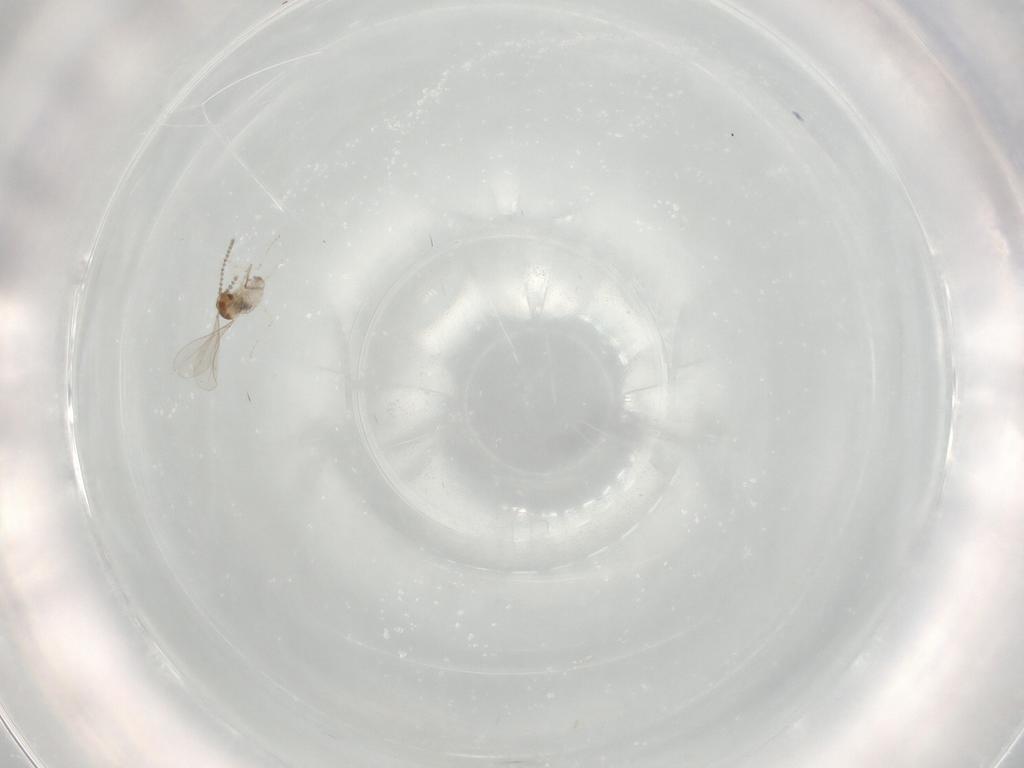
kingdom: Animalia
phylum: Arthropoda
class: Insecta
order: Diptera
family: Cecidomyiidae
